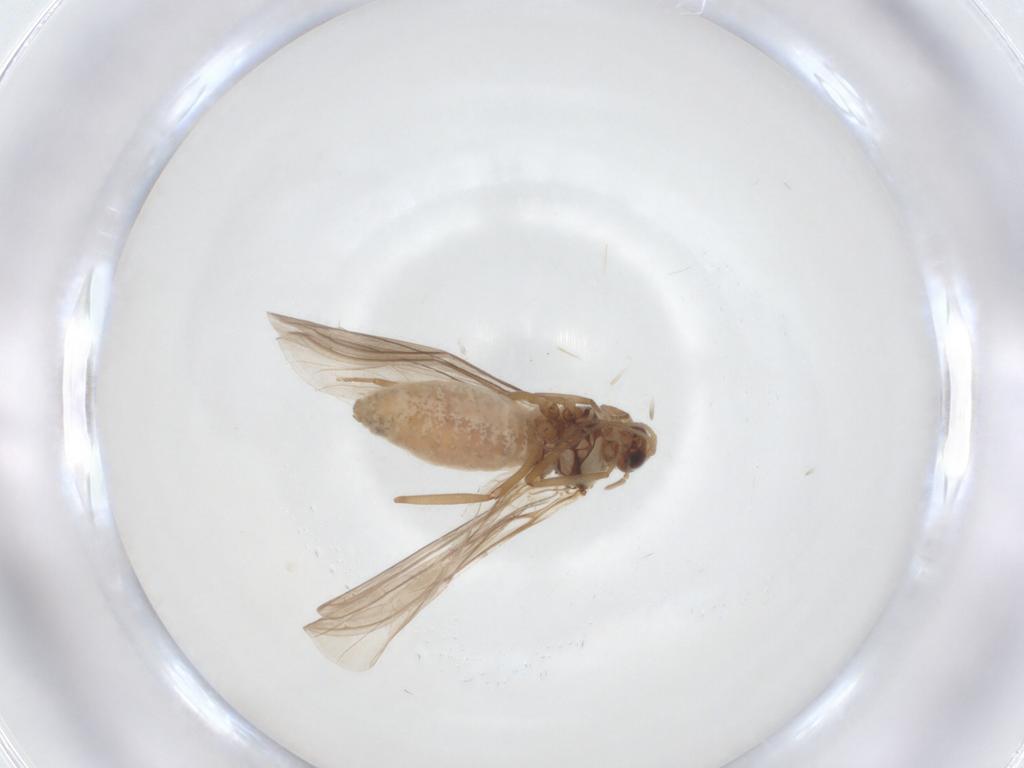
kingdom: Animalia
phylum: Arthropoda
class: Insecta
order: Neuroptera
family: Coniopterygidae
